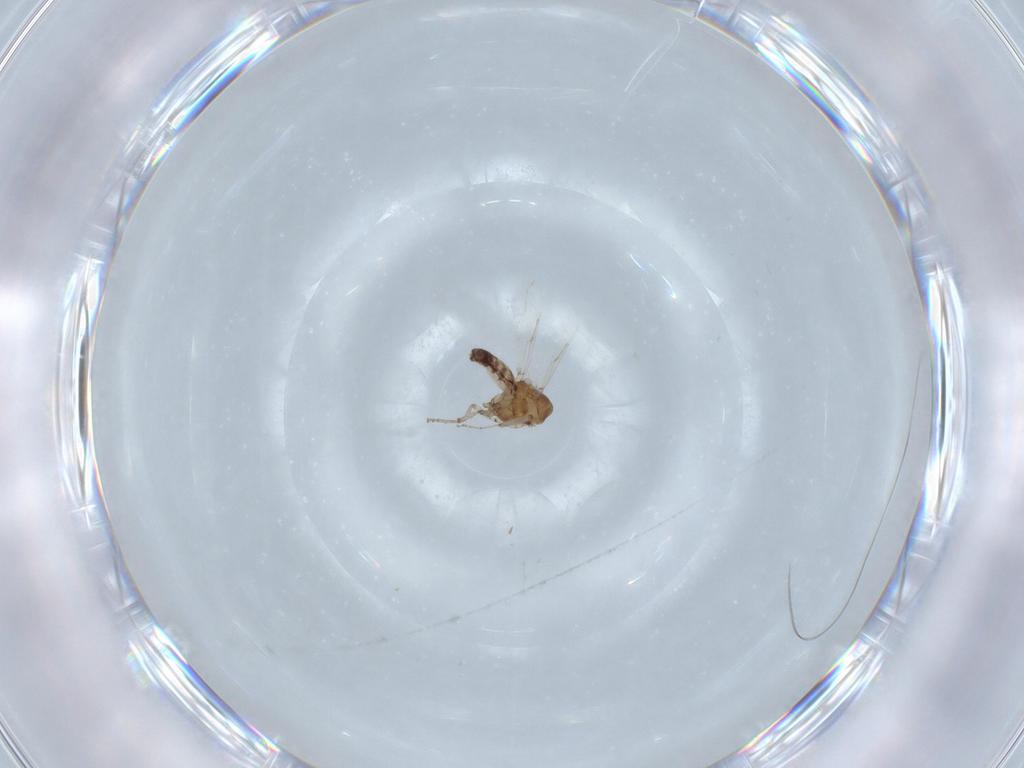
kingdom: Animalia
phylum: Arthropoda
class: Insecta
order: Diptera
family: Ceratopogonidae
